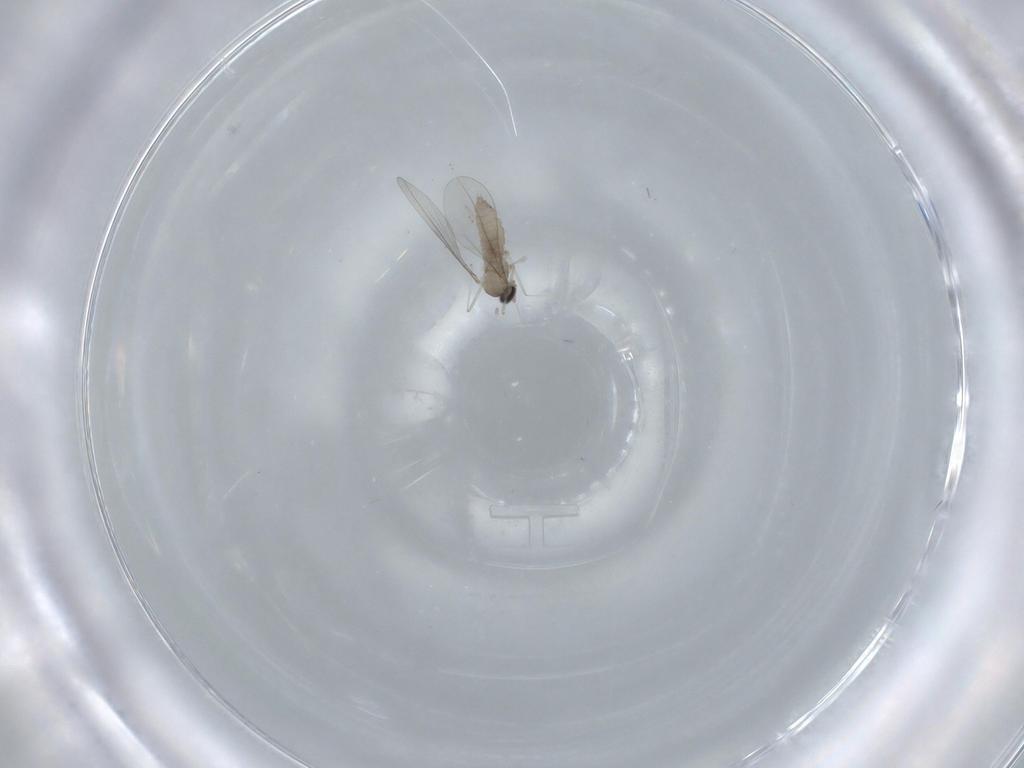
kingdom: Animalia
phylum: Arthropoda
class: Insecta
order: Diptera
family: Cecidomyiidae
